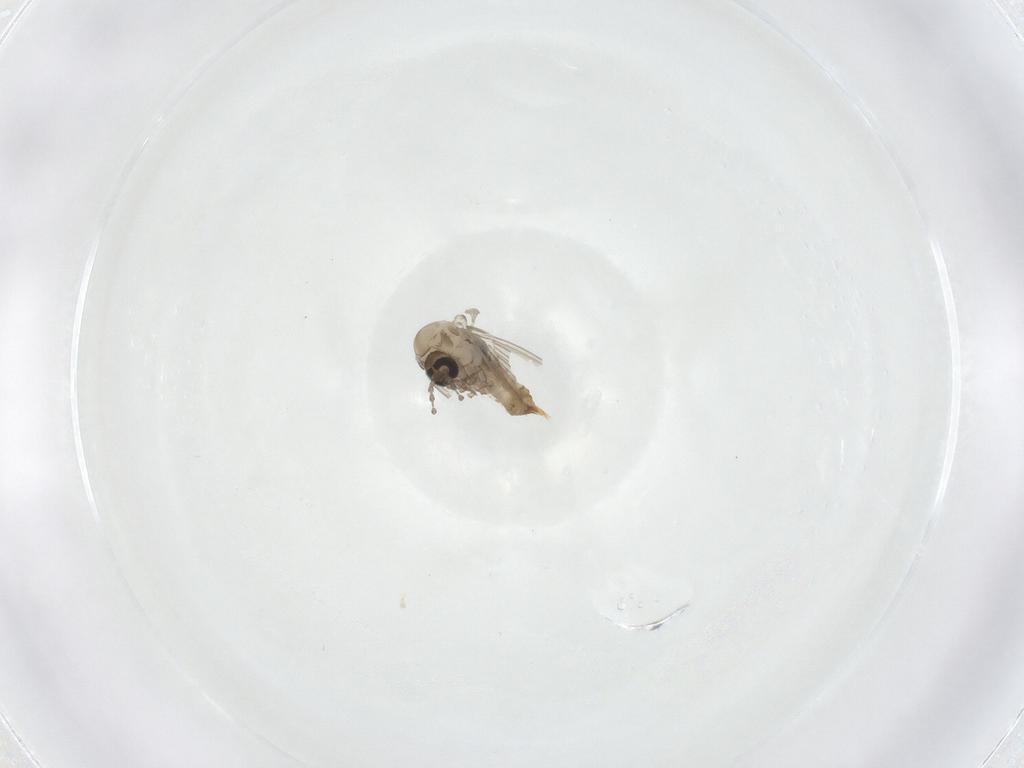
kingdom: Animalia
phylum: Arthropoda
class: Insecta
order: Diptera
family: Psychodidae
